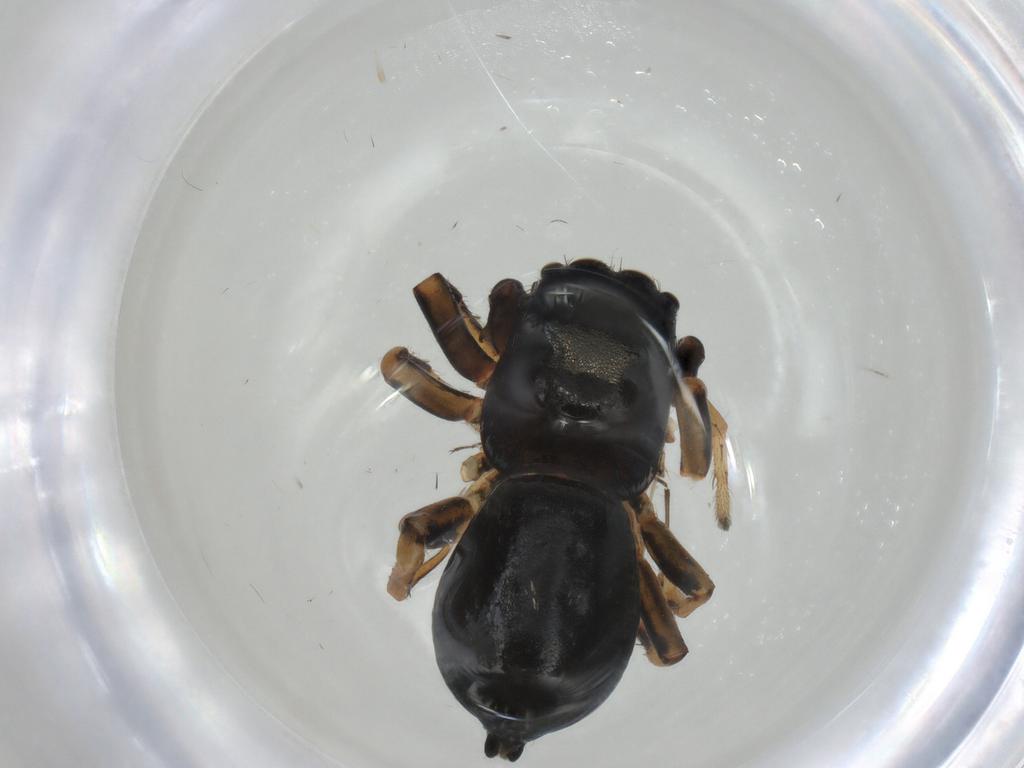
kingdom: Animalia
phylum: Arthropoda
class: Arachnida
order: Araneae
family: Salticidae
